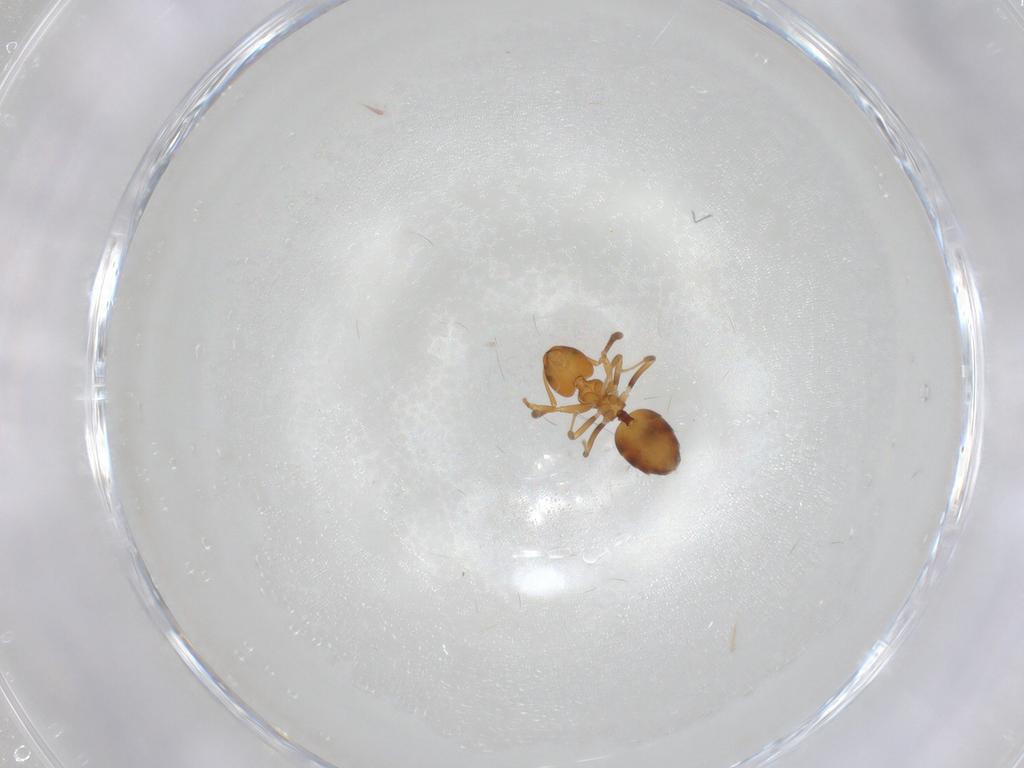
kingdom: Animalia
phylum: Arthropoda
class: Insecta
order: Hymenoptera
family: Formicidae
